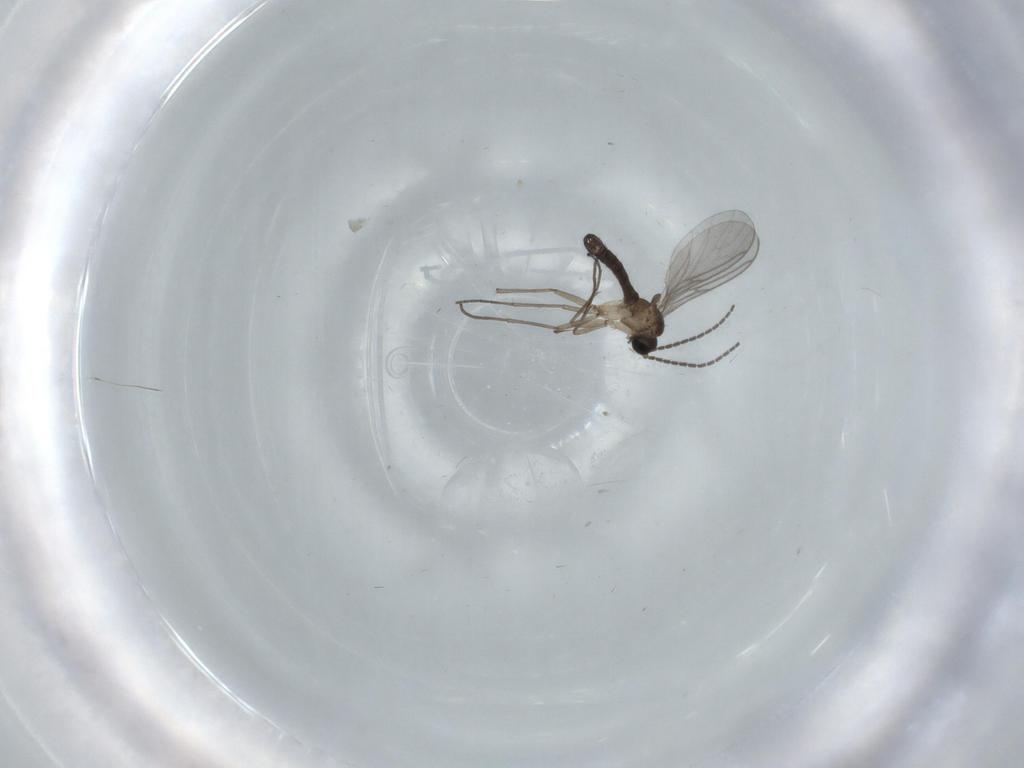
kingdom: Animalia
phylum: Arthropoda
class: Insecta
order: Diptera
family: Sciaridae
